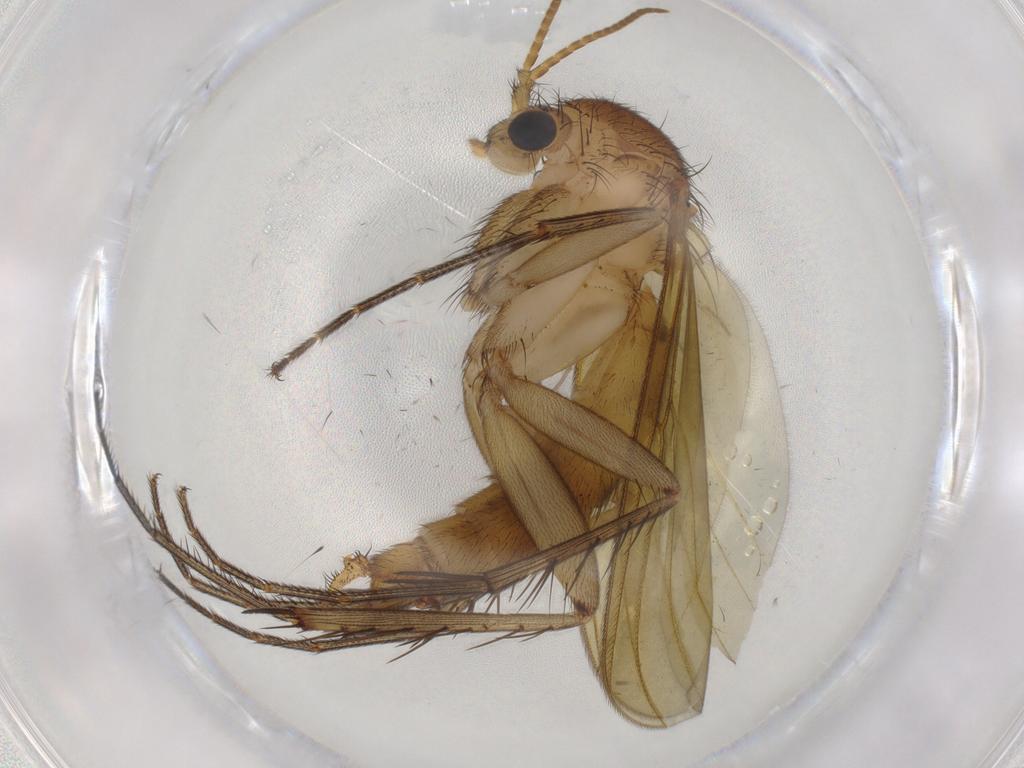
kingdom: Animalia
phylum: Arthropoda
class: Insecta
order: Diptera
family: Mycetophilidae
